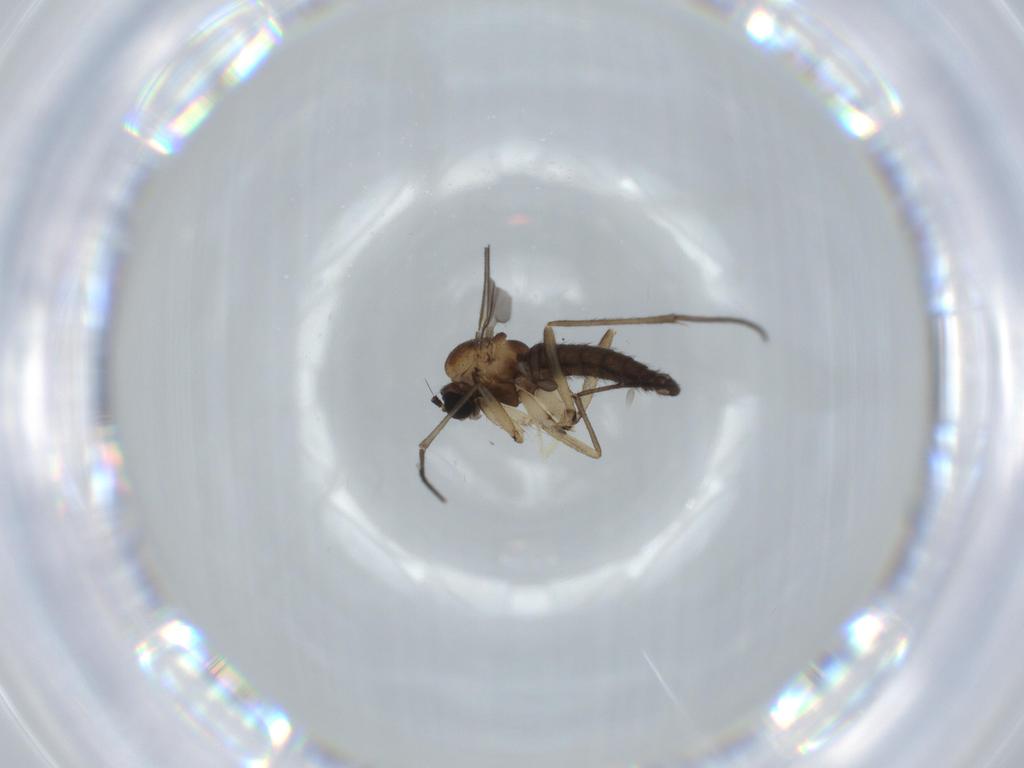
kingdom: Animalia
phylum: Arthropoda
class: Insecta
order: Diptera
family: Sciaridae
